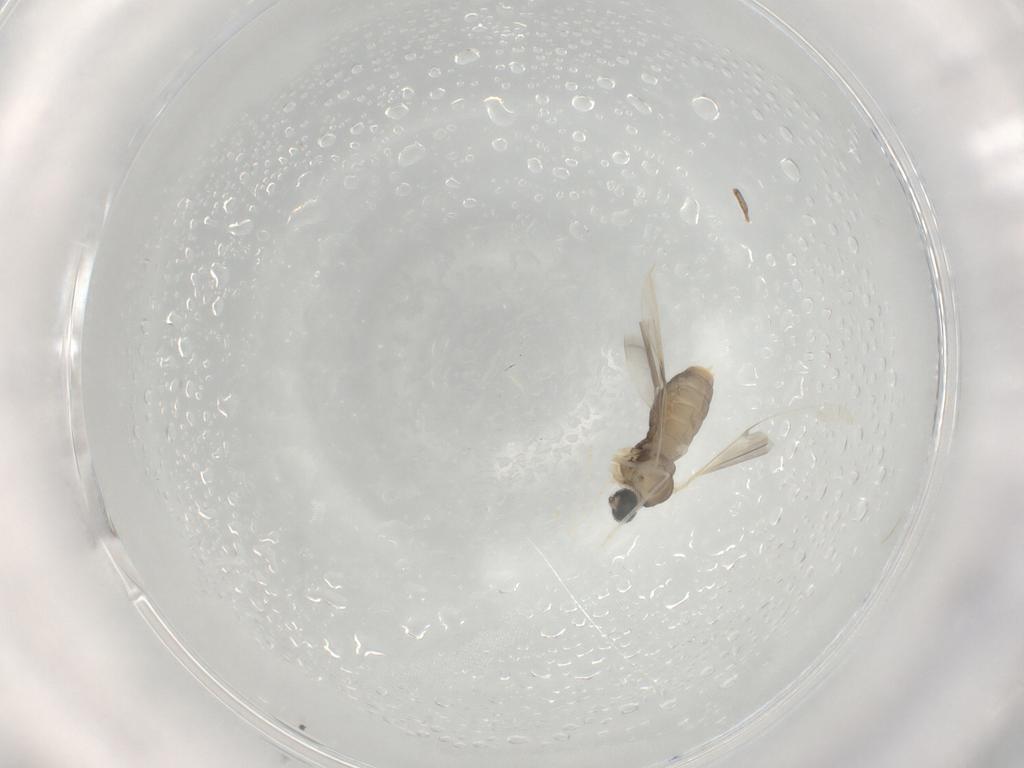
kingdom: Animalia
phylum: Arthropoda
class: Insecta
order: Diptera
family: Cecidomyiidae
